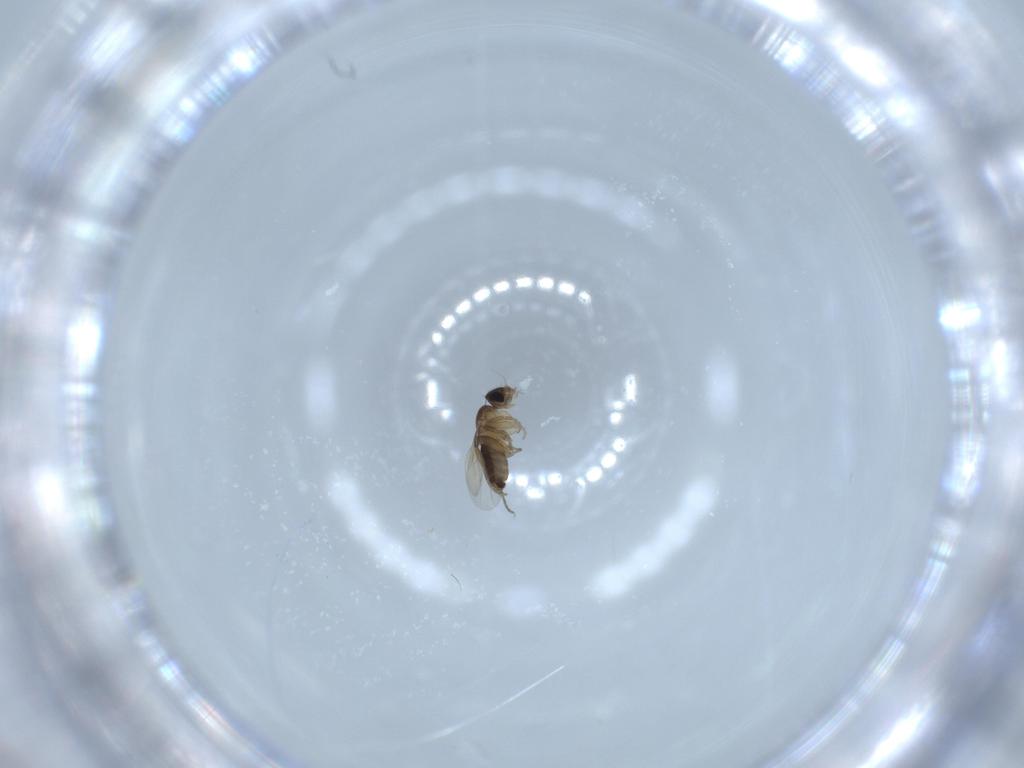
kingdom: Animalia
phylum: Arthropoda
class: Insecta
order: Diptera
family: Phoridae
